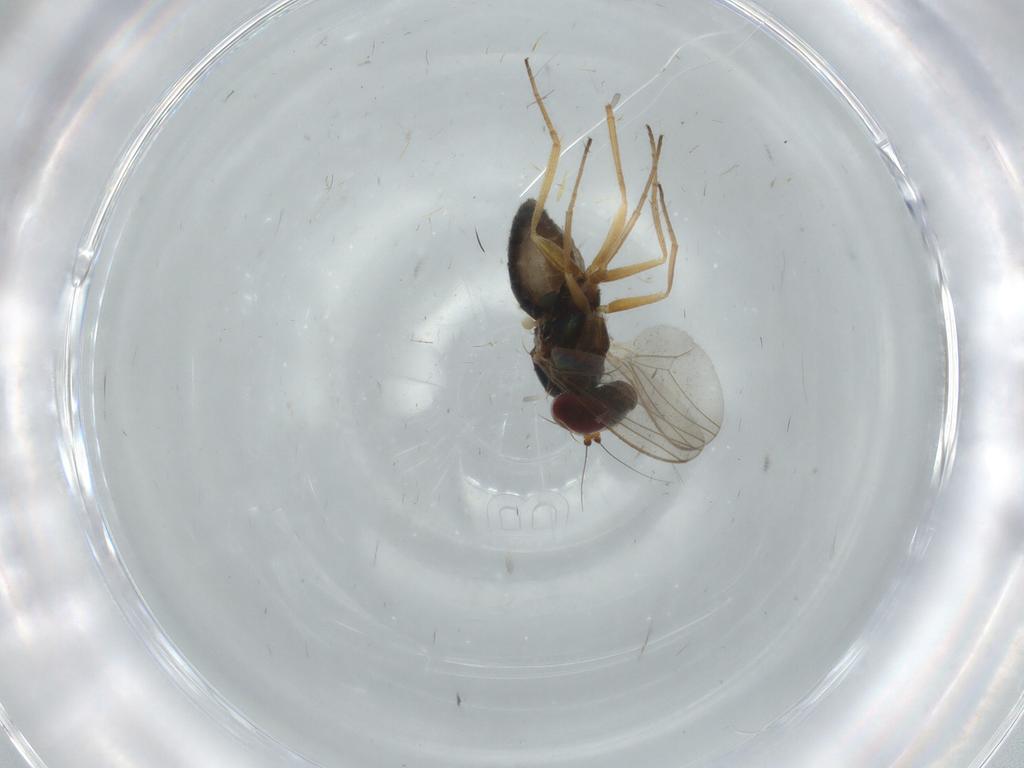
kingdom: Animalia
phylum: Arthropoda
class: Insecta
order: Diptera
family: Dolichopodidae
